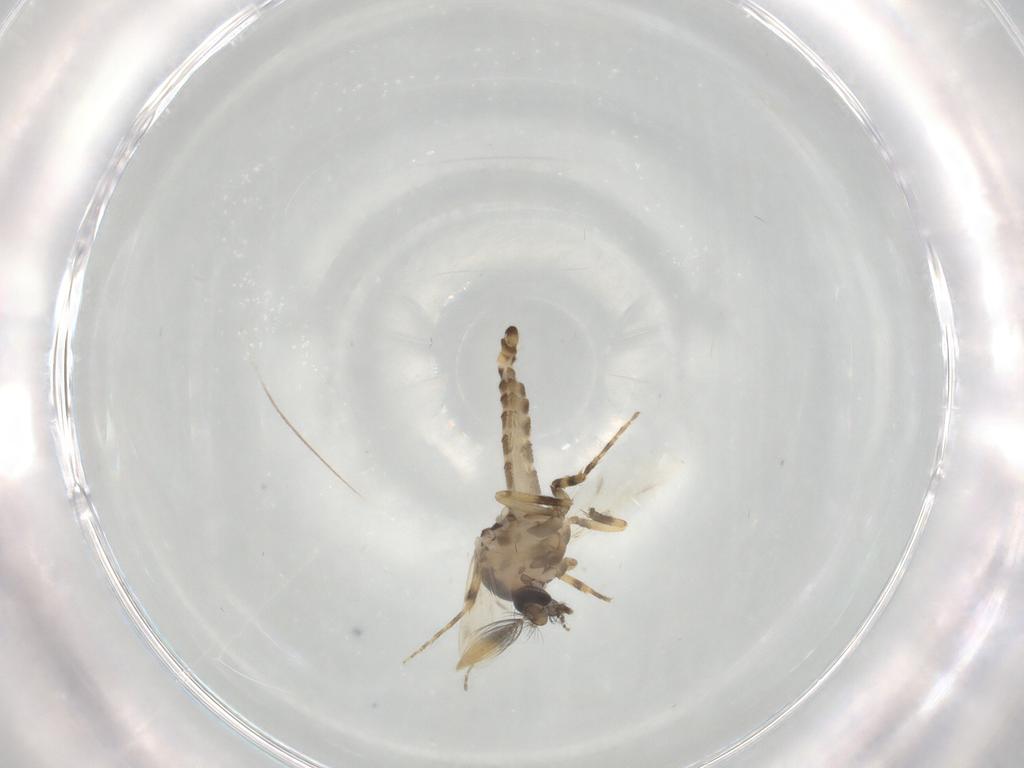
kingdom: Animalia
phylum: Arthropoda
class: Insecta
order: Diptera
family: Ceratopogonidae
